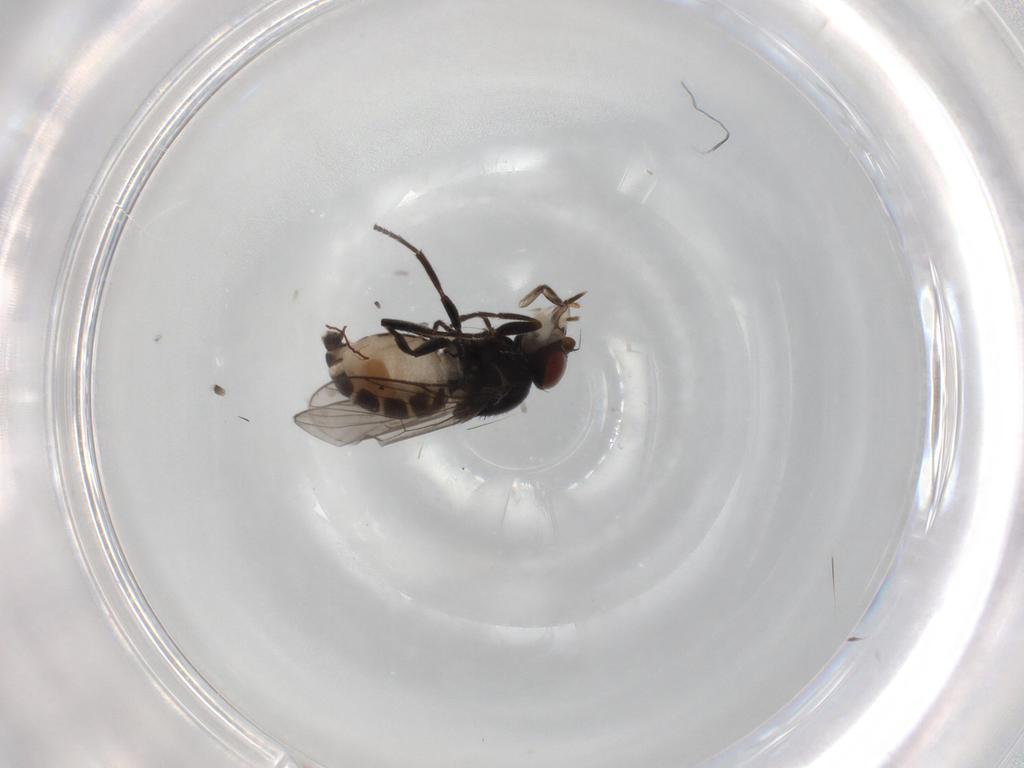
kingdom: Animalia
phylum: Arthropoda
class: Insecta
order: Diptera
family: Chloropidae
